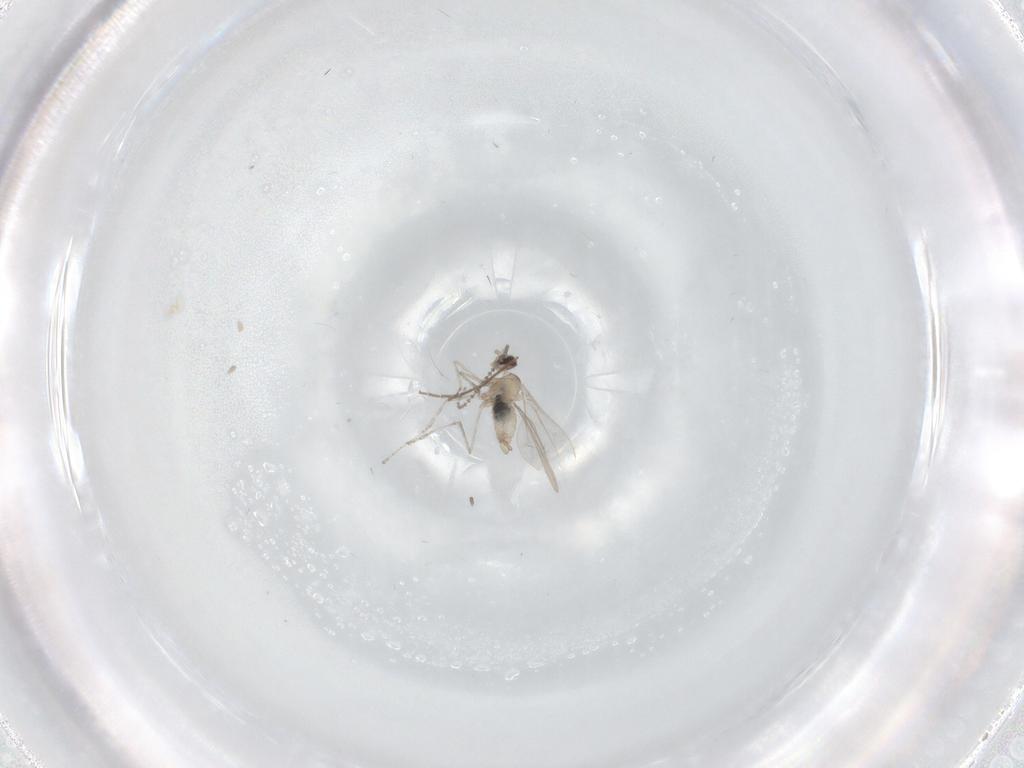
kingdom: Animalia
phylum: Arthropoda
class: Insecta
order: Diptera
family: Cecidomyiidae
